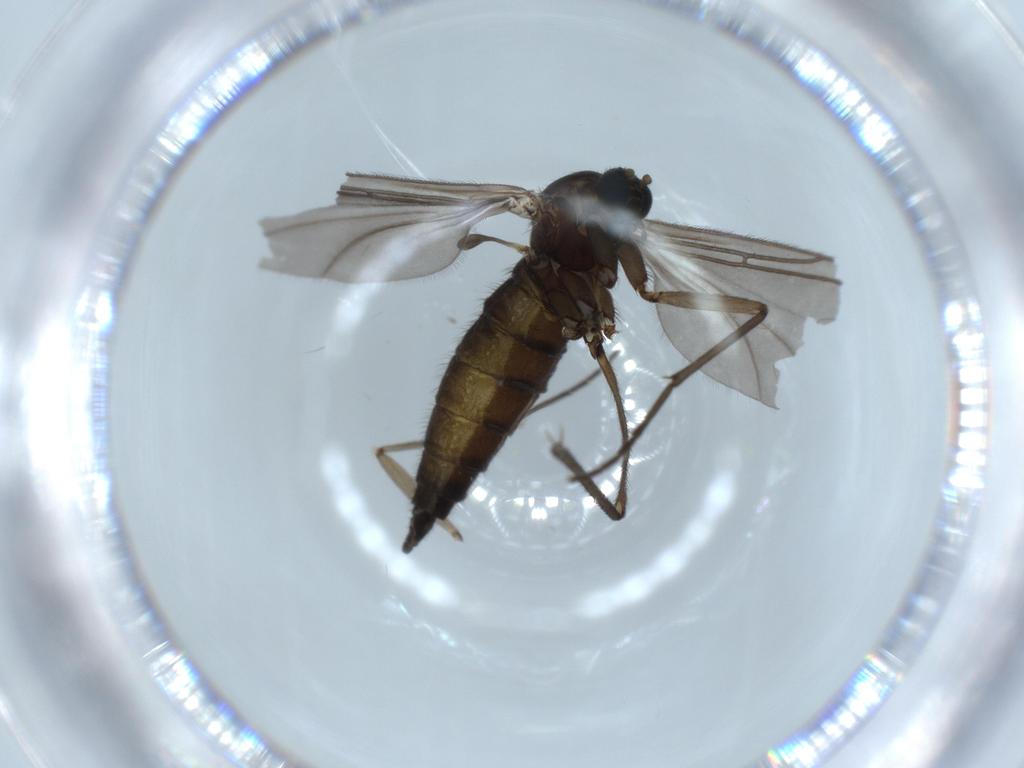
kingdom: Animalia
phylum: Arthropoda
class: Insecta
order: Diptera
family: Sciaridae
